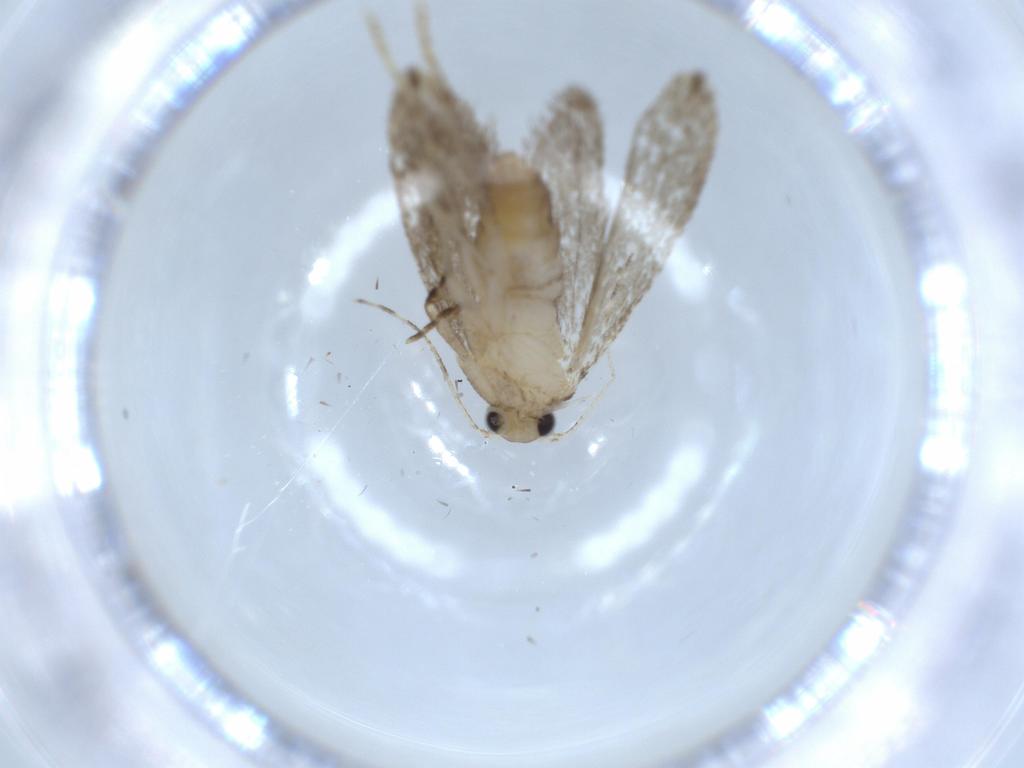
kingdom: Animalia
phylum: Arthropoda
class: Insecta
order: Lepidoptera
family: Tineidae
